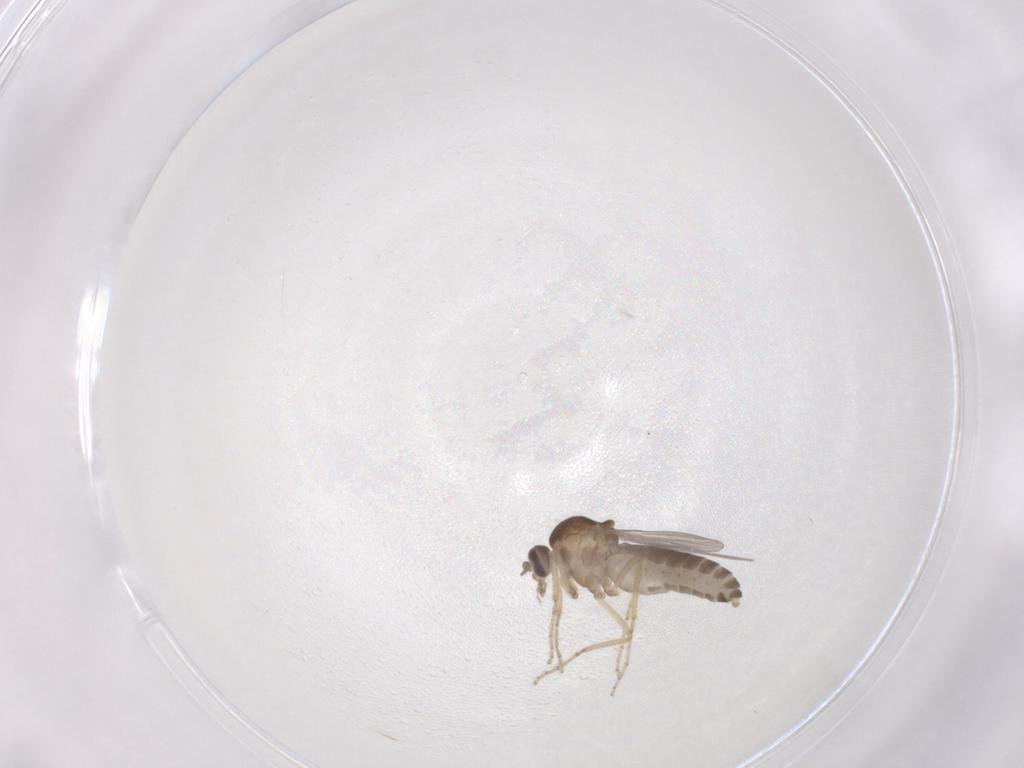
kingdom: Animalia
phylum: Arthropoda
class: Insecta
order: Diptera
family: Ceratopogonidae
